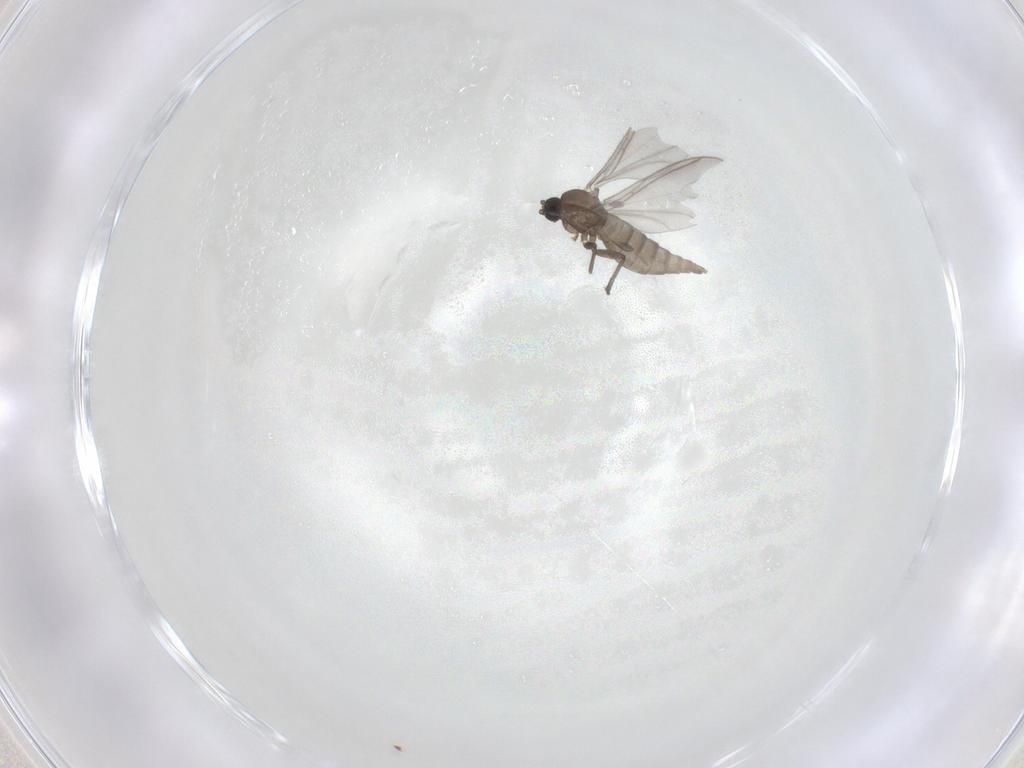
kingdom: Animalia
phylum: Arthropoda
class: Insecta
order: Diptera
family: Sciaridae
